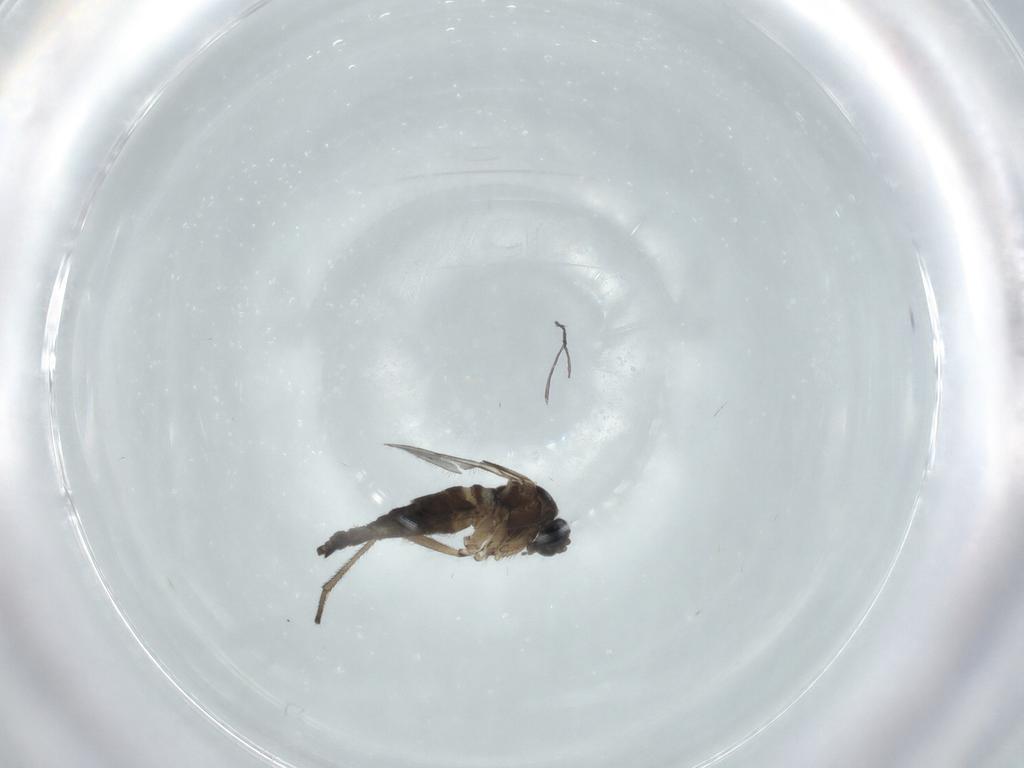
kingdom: Animalia
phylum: Arthropoda
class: Insecta
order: Diptera
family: Sciaridae
